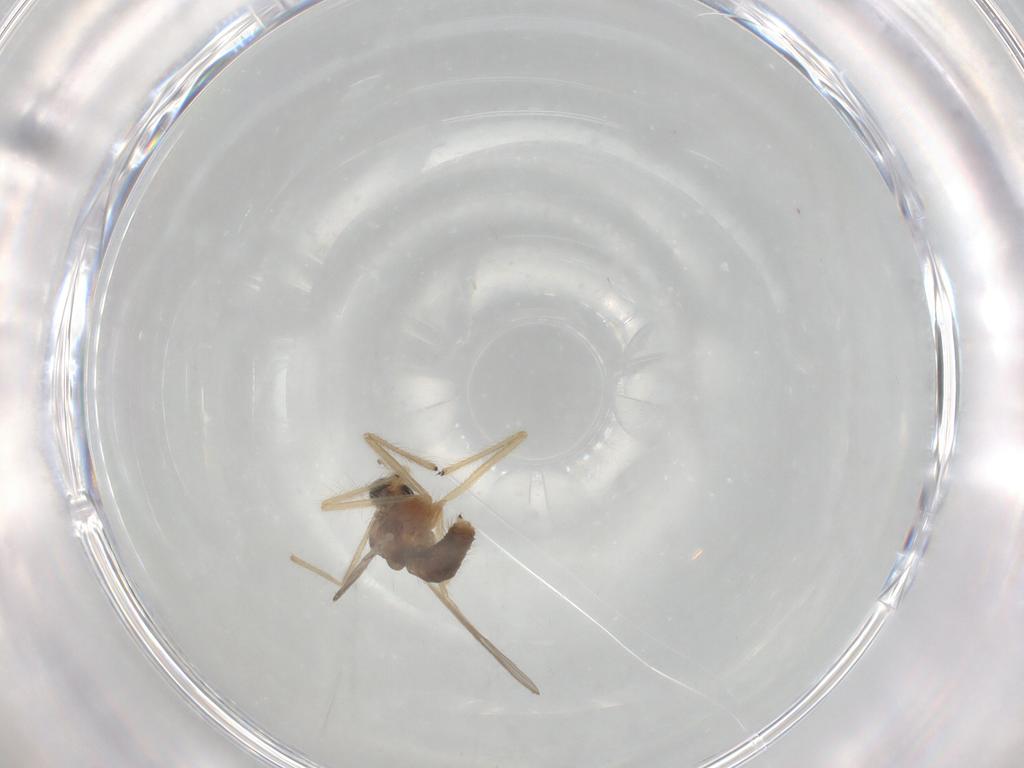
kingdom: Animalia
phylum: Arthropoda
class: Insecta
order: Diptera
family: Chironomidae
